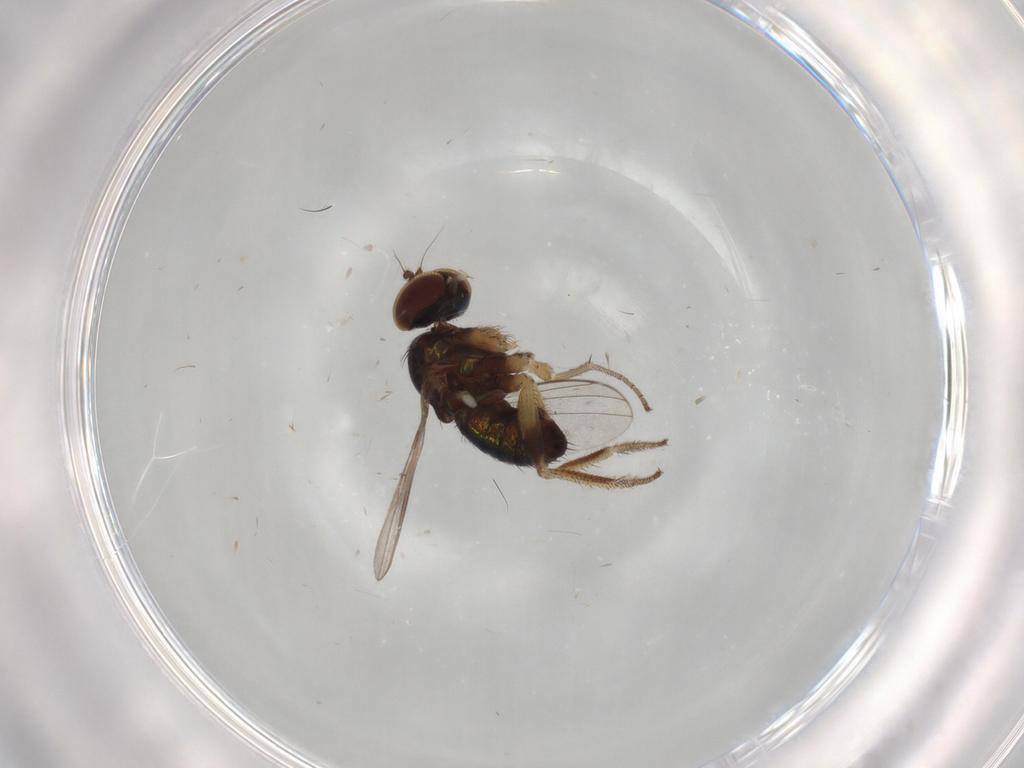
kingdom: Animalia
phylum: Arthropoda
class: Insecta
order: Diptera
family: Ceratopogonidae
